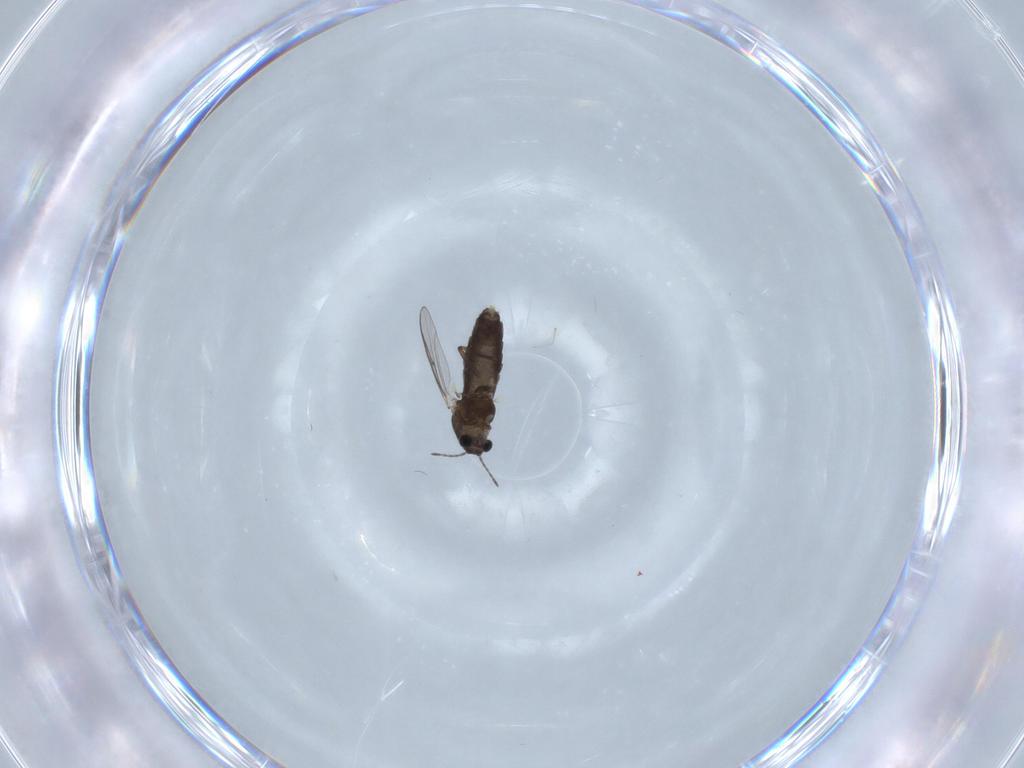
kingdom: Animalia
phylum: Arthropoda
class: Insecta
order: Diptera
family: Chironomidae
